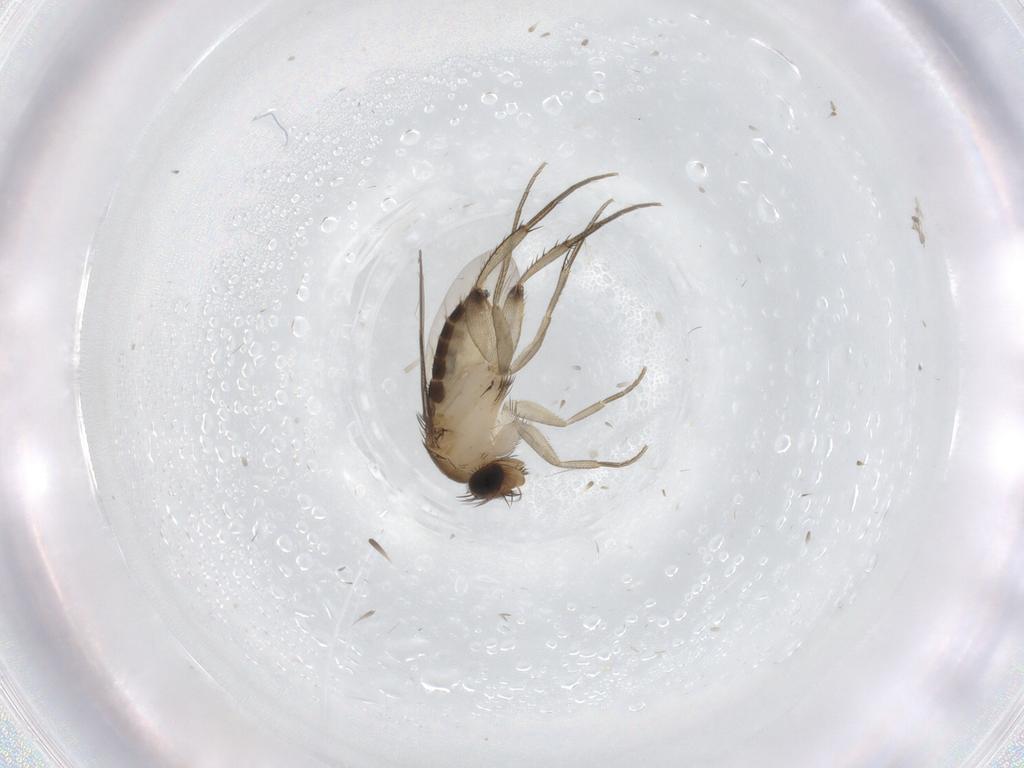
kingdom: Animalia
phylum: Arthropoda
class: Insecta
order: Diptera
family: Phoridae
